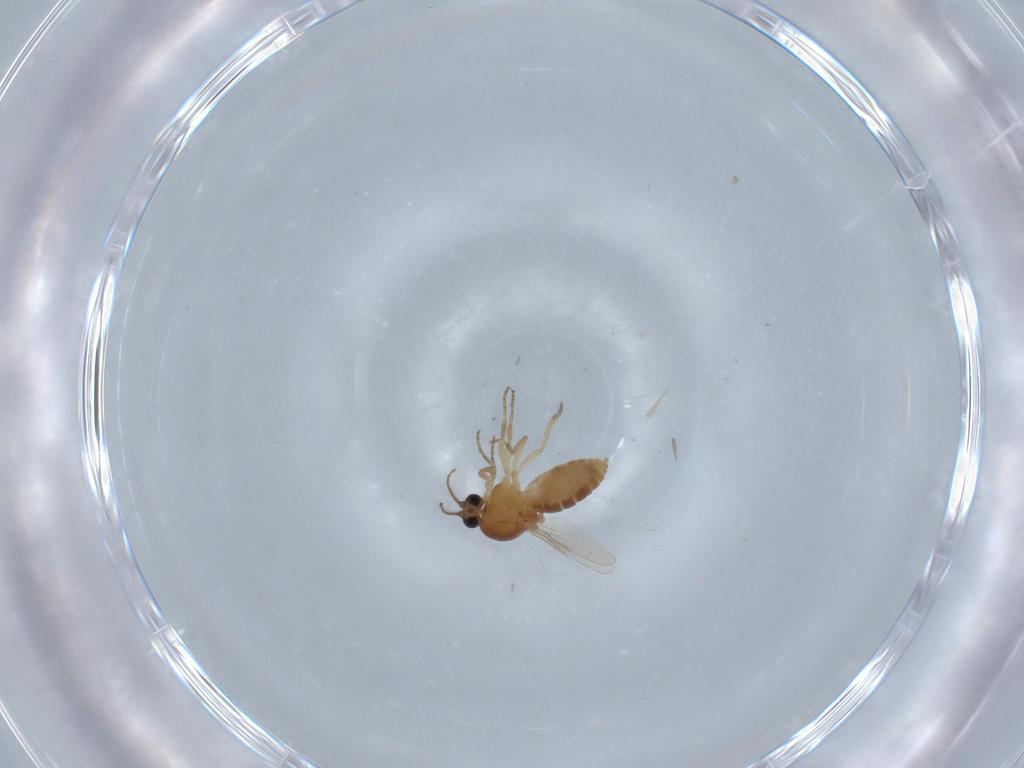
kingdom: Animalia
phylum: Arthropoda
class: Insecta
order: Diptera
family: Ceratopogonidae
